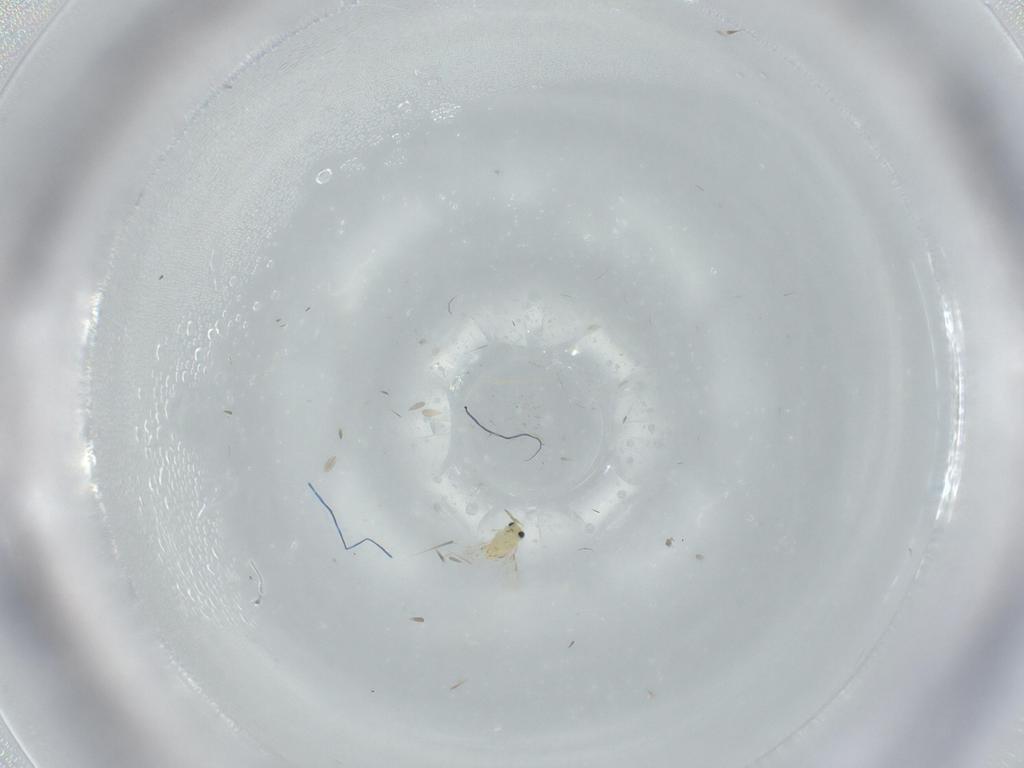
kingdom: Animalia
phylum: Arthropoda
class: Insecta
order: Diptera
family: Ceratopogonidae
